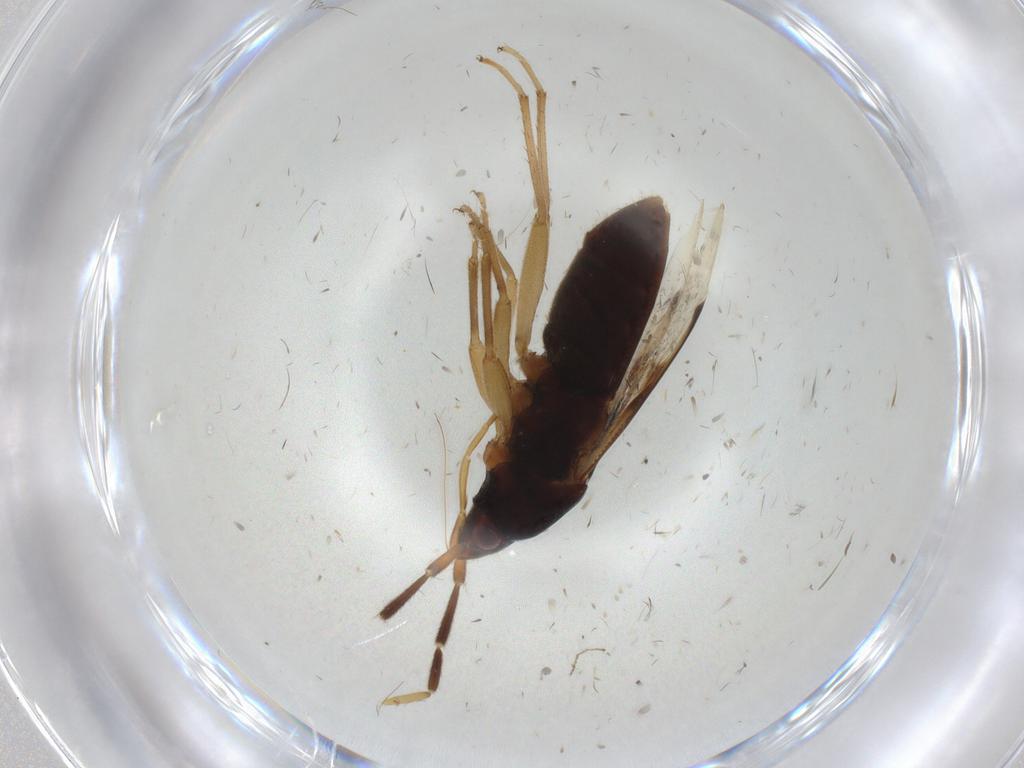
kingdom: Animalia
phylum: Arthropoda
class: Insecta
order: Hemiptera
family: Rhyparochromidae
